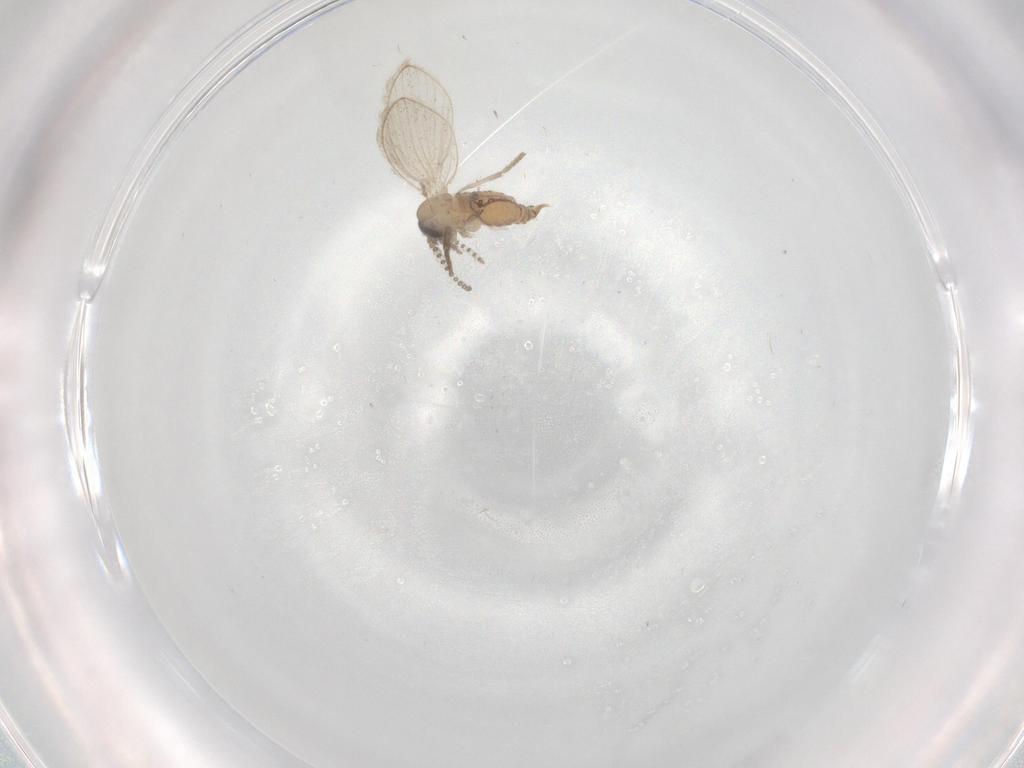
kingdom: Animalia
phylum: Arthropoda
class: Insecta
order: Diptera
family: Psychodidae
